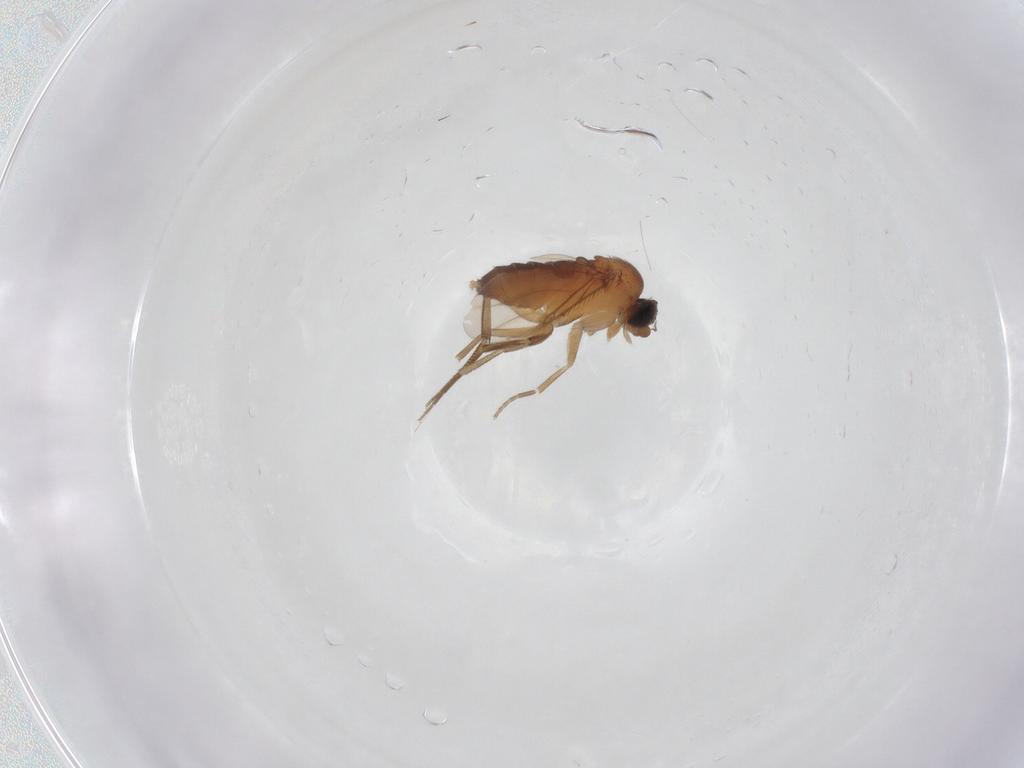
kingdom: Animalia
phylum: Arthropoda
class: Insecta
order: Diptera
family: Phoridae
